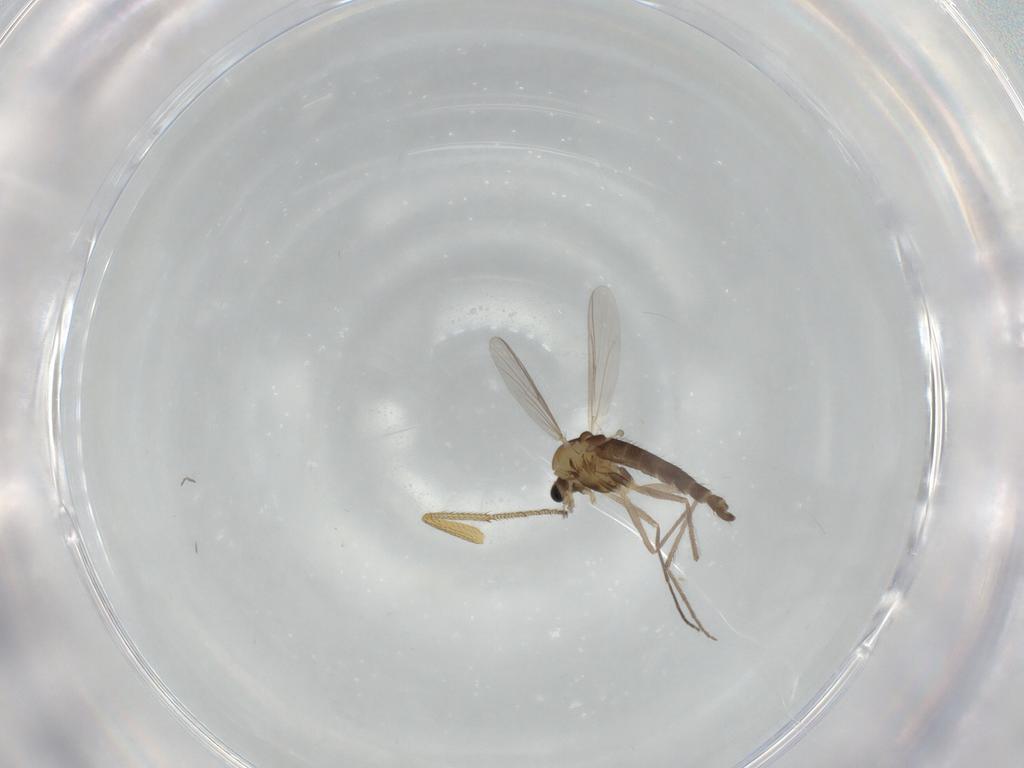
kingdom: Animalia
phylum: Arthropoda
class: Insecta
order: Diptera
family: Chironomidae
